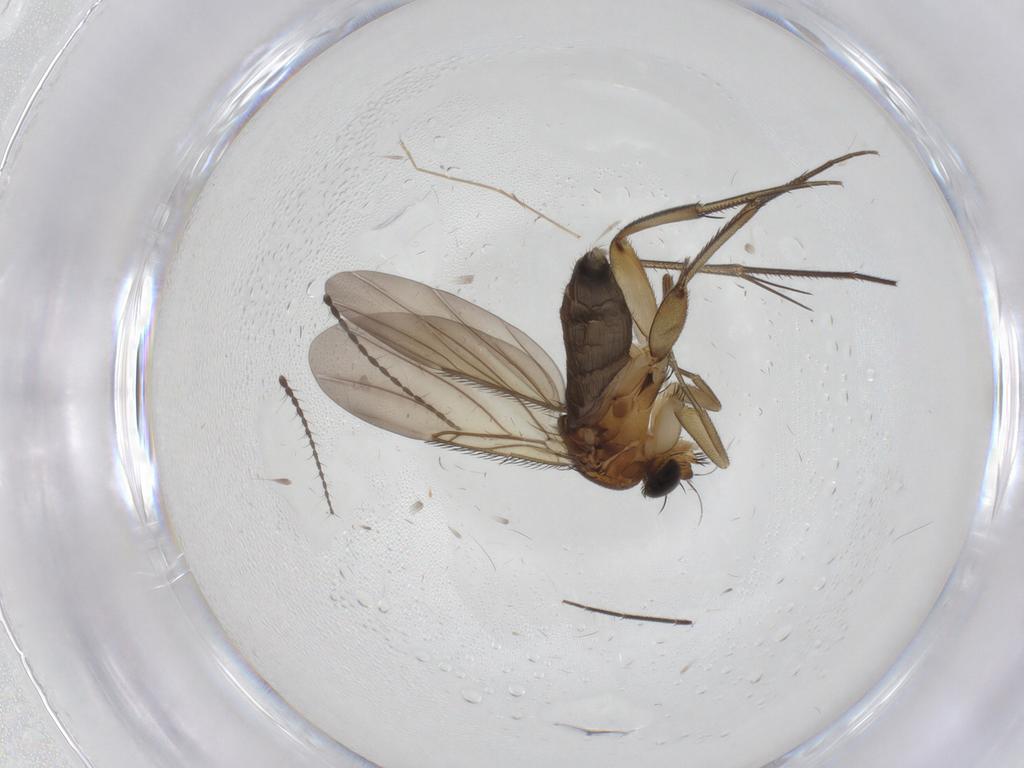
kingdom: Animalia
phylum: Arthropoda
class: Insecta
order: Diptera
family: Phoridae
